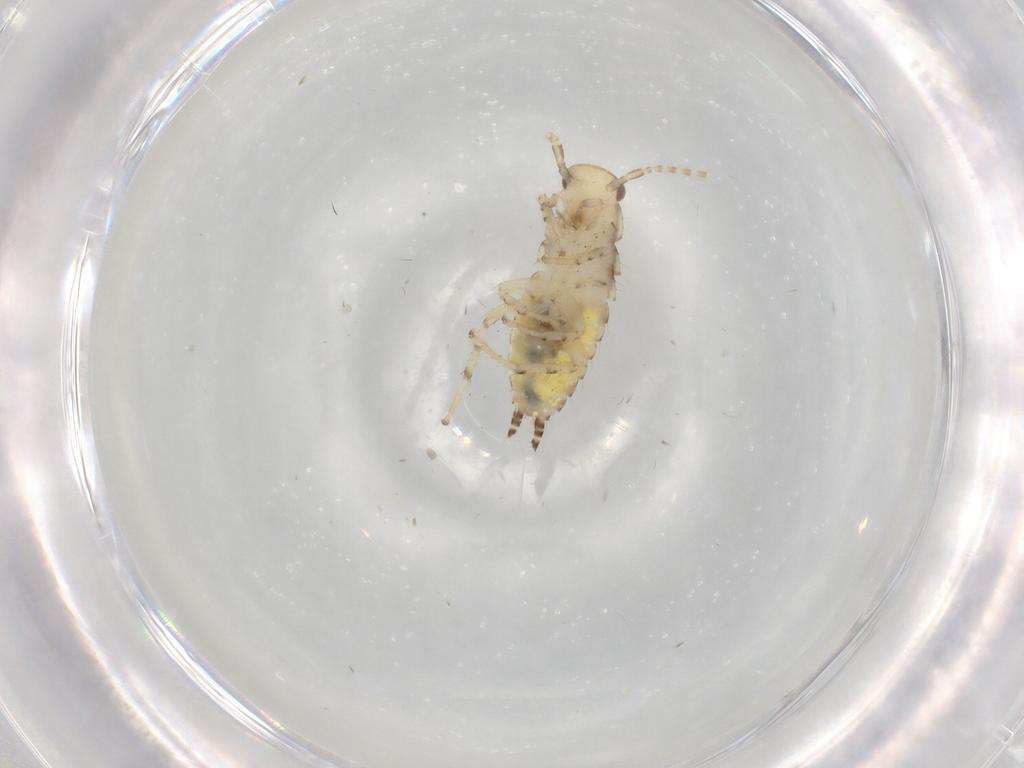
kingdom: Animalia
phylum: Arthropoda
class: Insecta
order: Blattodea
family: Ectobiidae
